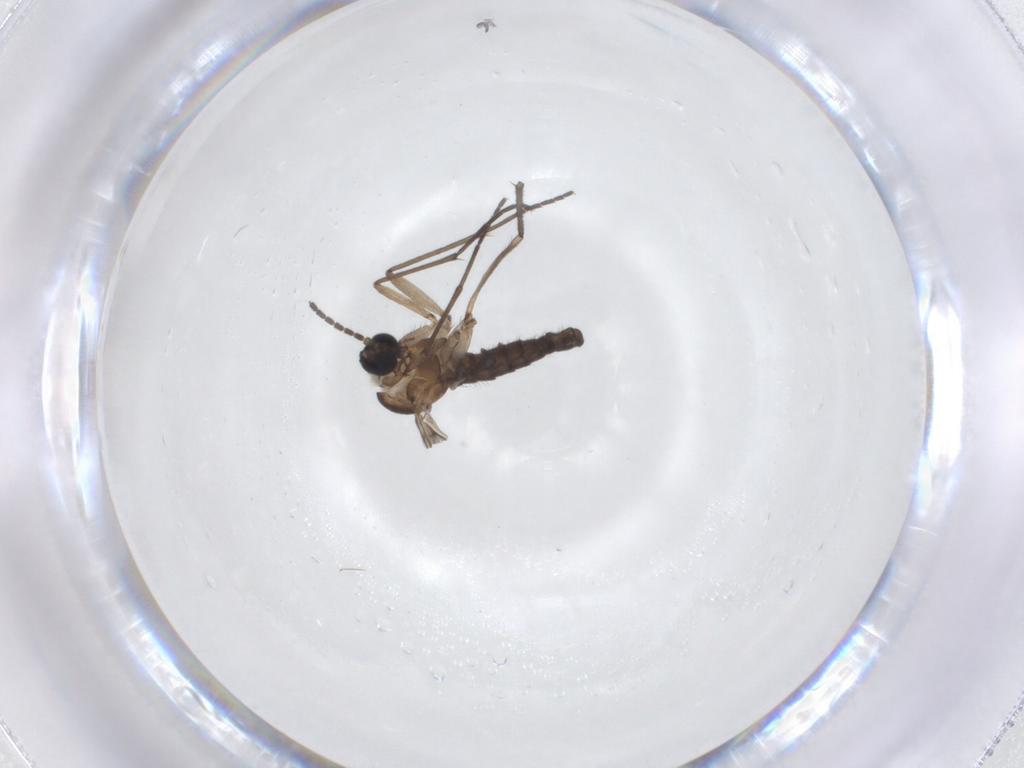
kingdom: Animalia
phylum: Arthropoda
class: Insecta
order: Diptera
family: Sciaridae
